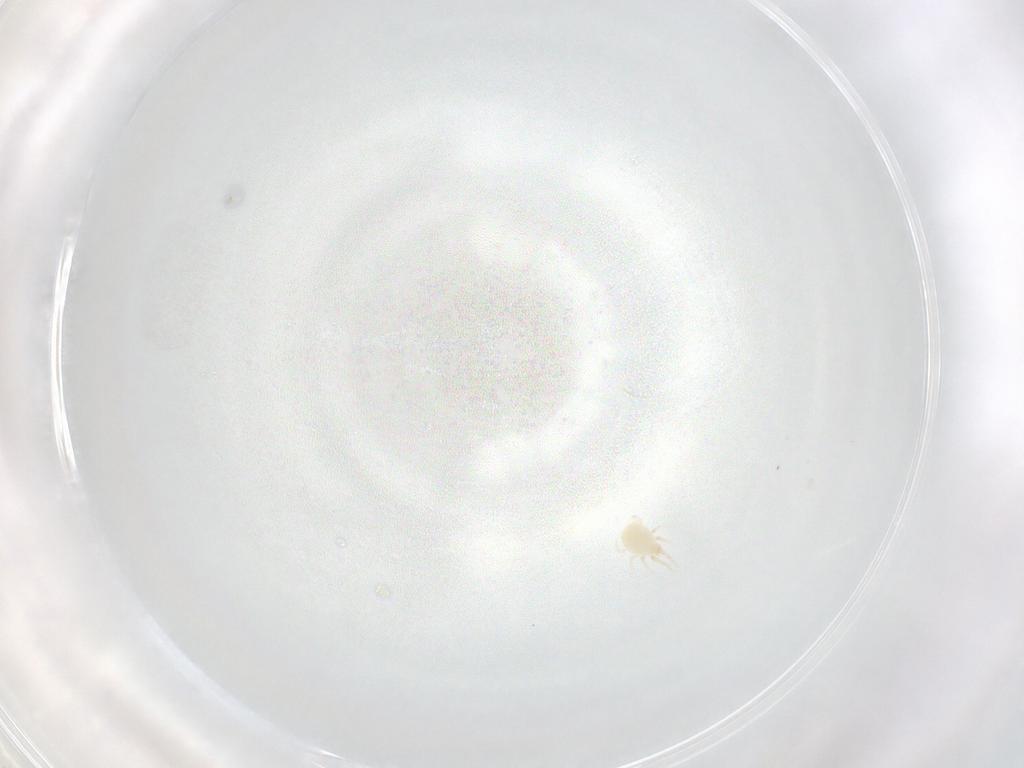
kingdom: Animalia
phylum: Arthropoda
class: Arachnida
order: Mesostigmata
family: Phytoseiidae
